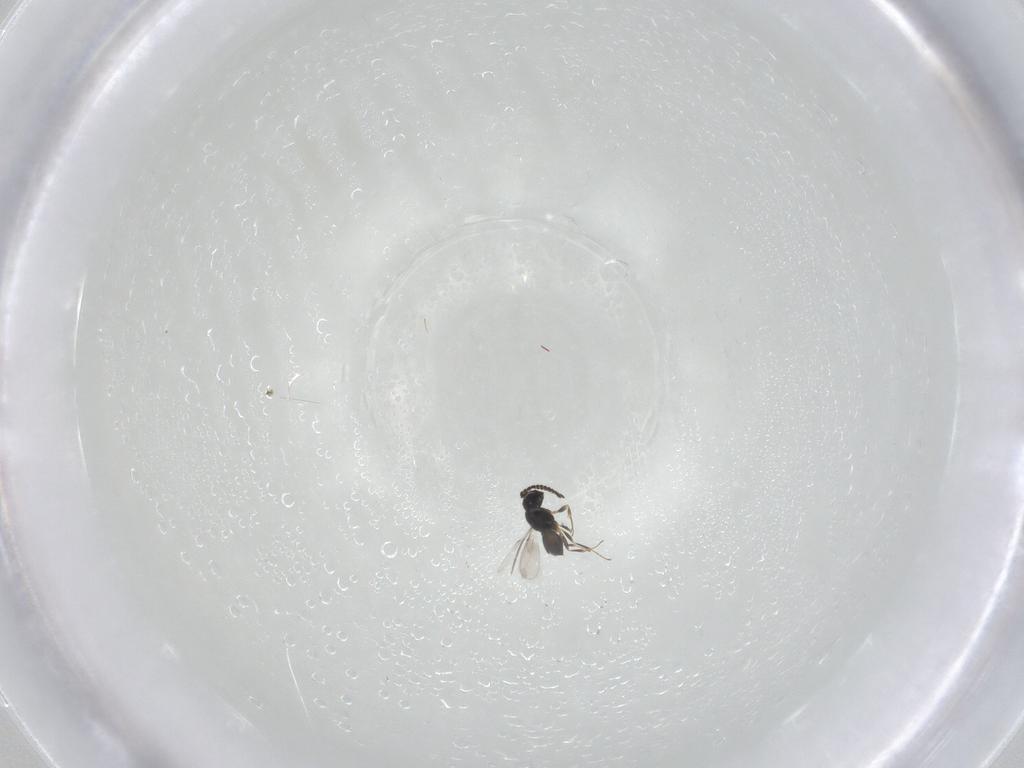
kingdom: Animalia
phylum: Arthropoda
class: Insecta
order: Hymenoptera
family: Scelionidae
